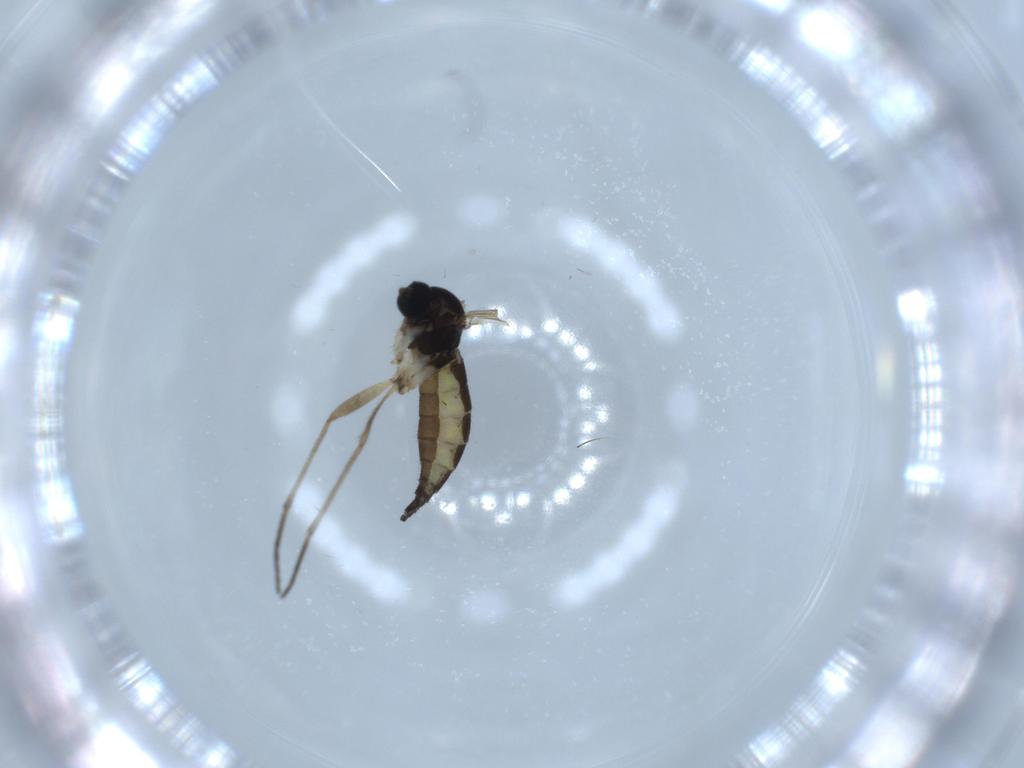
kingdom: Animalia
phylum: Arthropoda
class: Insecta
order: Diptera
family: Sciaridae
